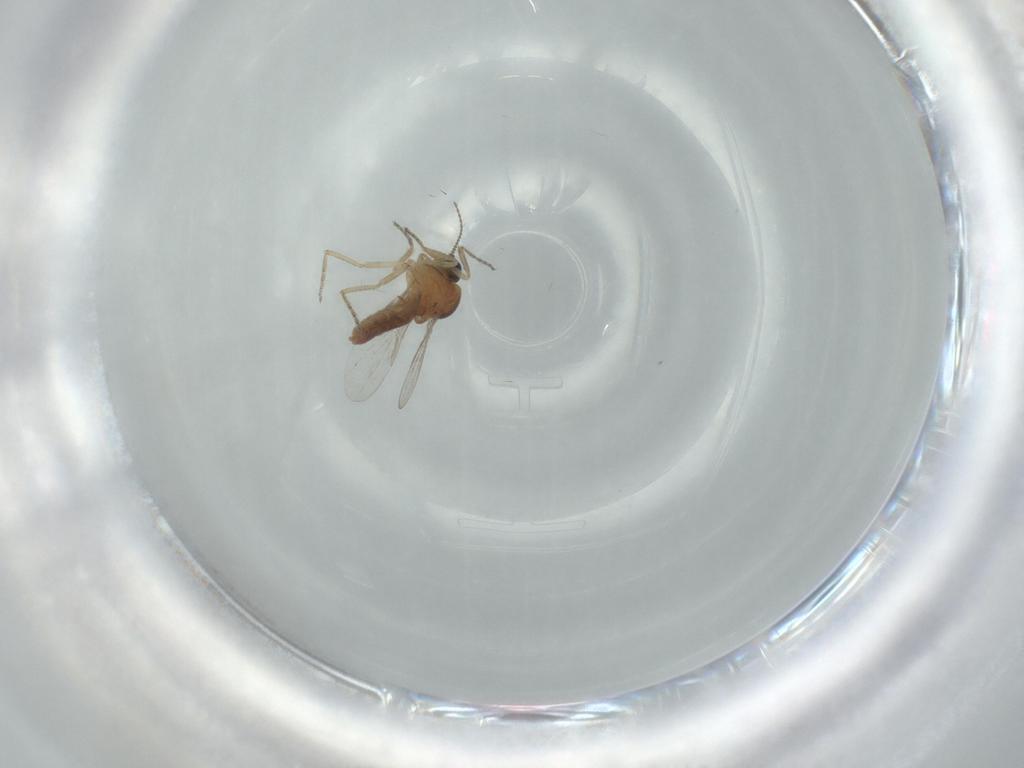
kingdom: Animalia
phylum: Arthropoda
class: Insecta
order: Diptera
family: Ceratopogonidae
